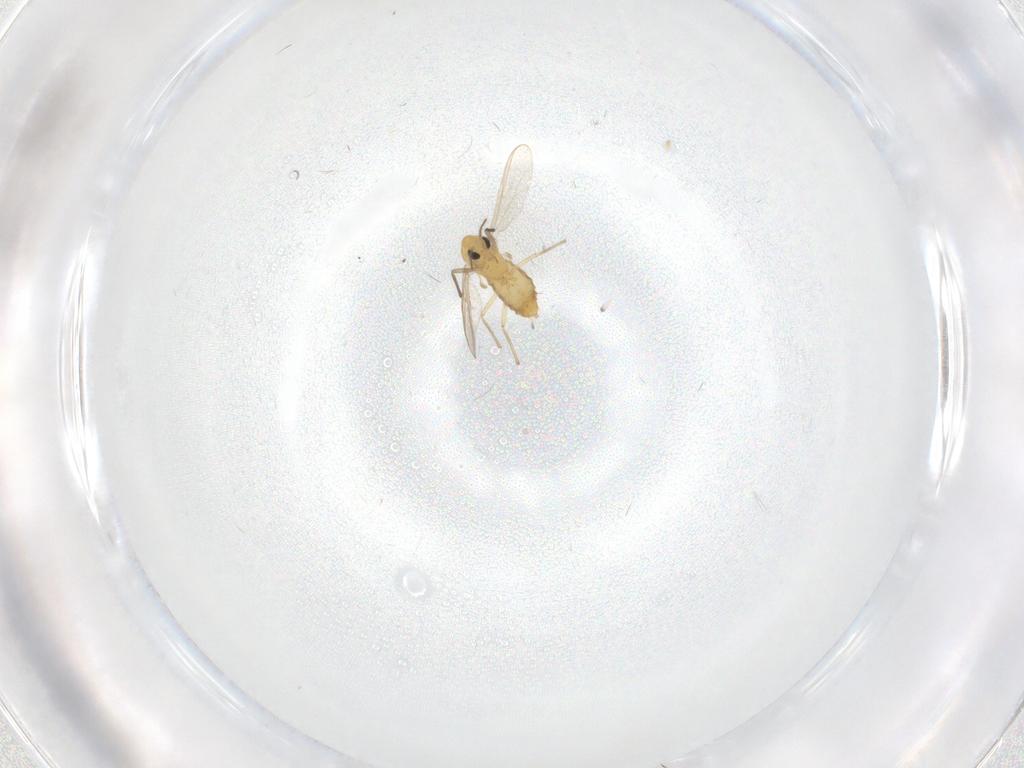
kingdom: Animalia
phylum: Arthropoda
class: Insecta
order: Diptera
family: Chironomidae
